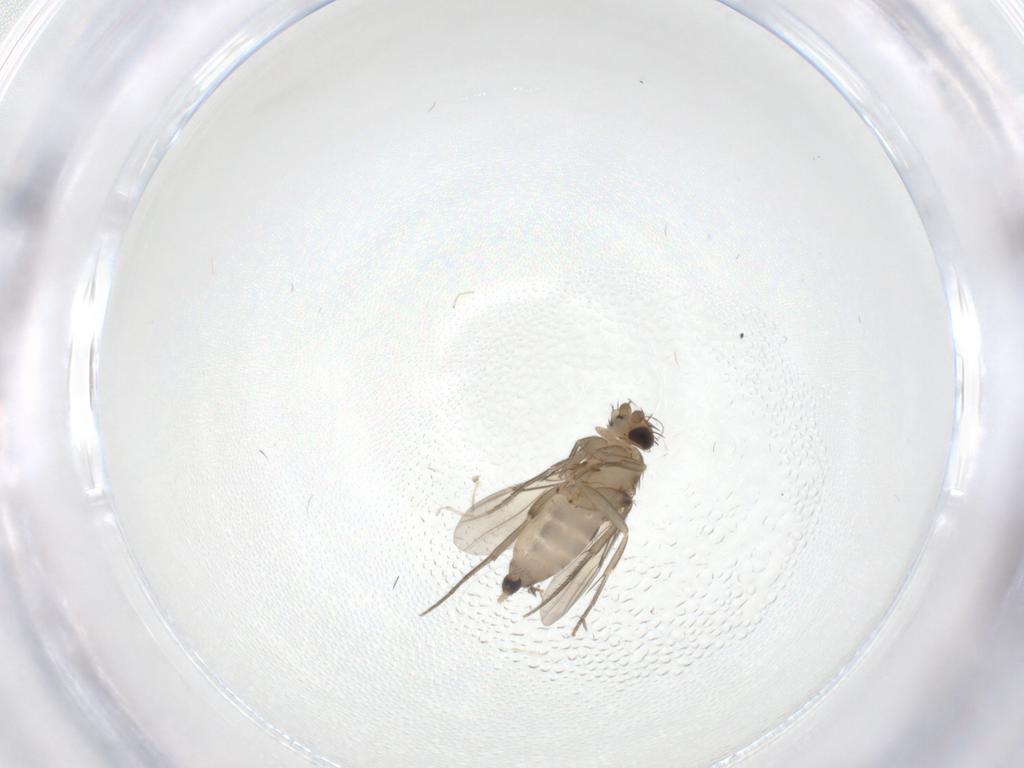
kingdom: Animalia
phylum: Arthropoda
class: Insecta
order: Diptera
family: Phoridae
